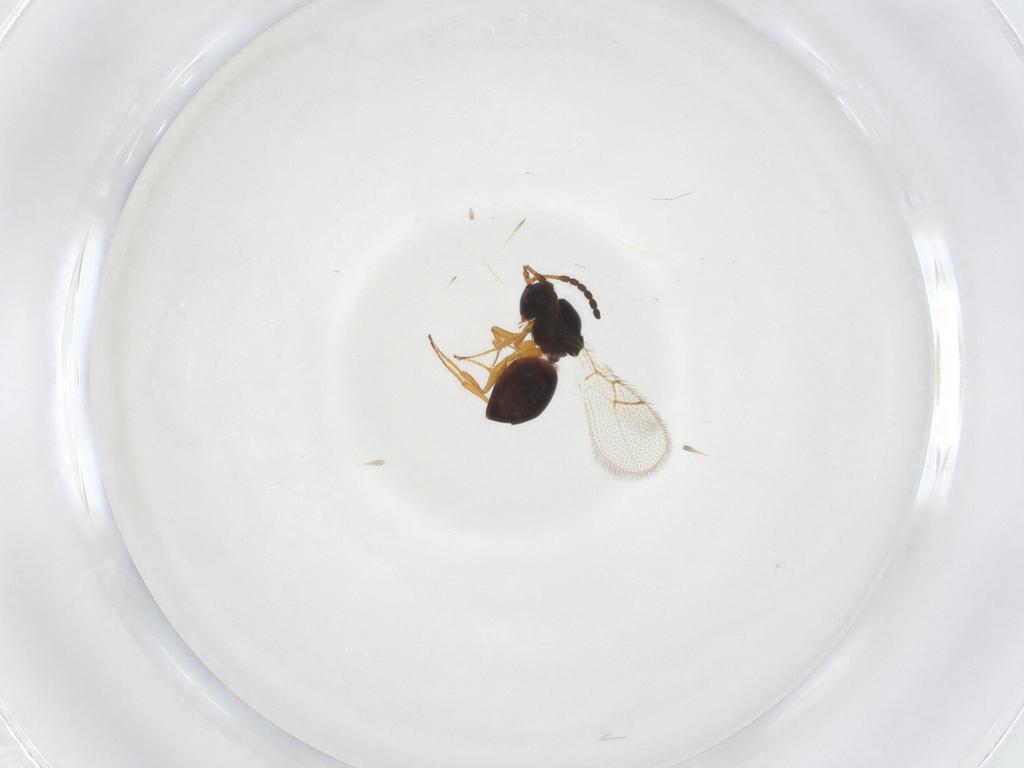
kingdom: Animalia
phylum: Arthropoda
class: Insecta
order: Hymenoptera
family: Figitidae
